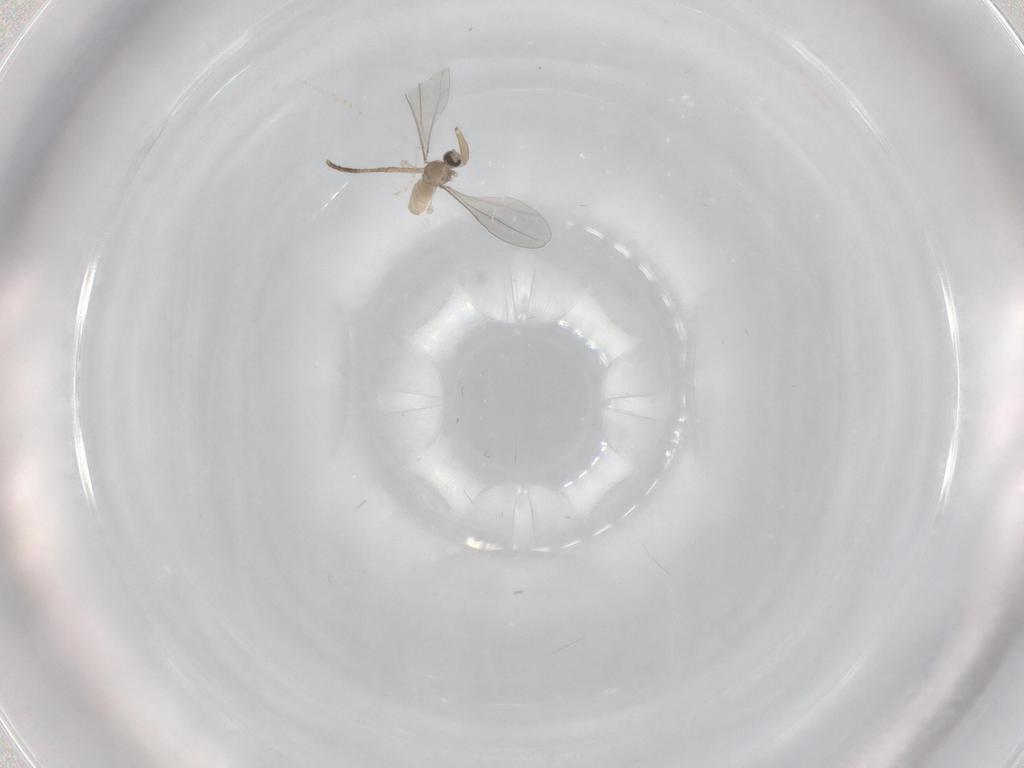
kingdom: Animalia
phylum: Arthropoda
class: Insecta
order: Diptera
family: Cecidomyiidae
